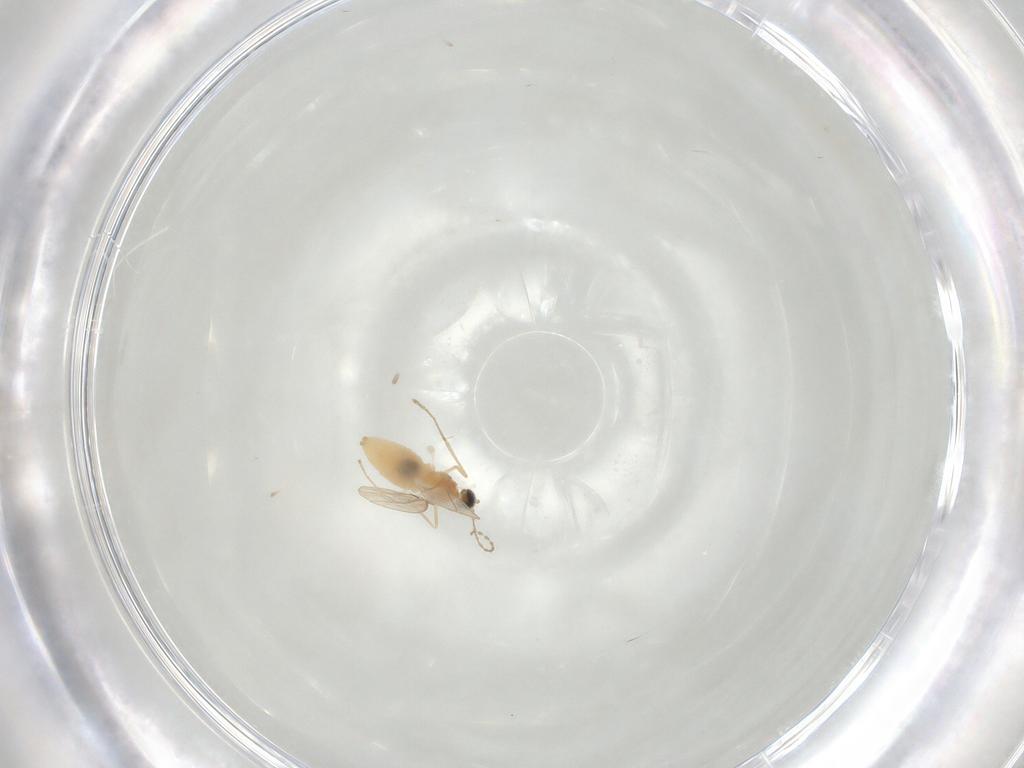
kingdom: Animalia
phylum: Arthropoda
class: Insecta
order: Diptera
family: Cecidomyiidae
